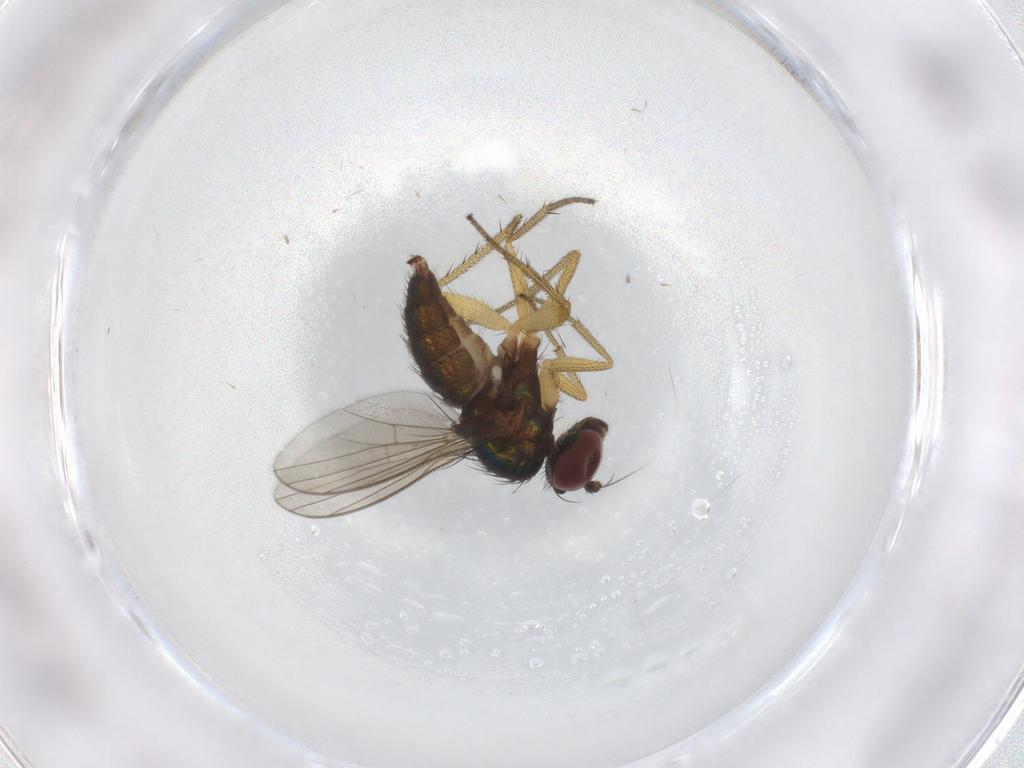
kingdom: Animalia
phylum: Arthropoda
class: Insecta
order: Diptera
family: Dolichopodidae
